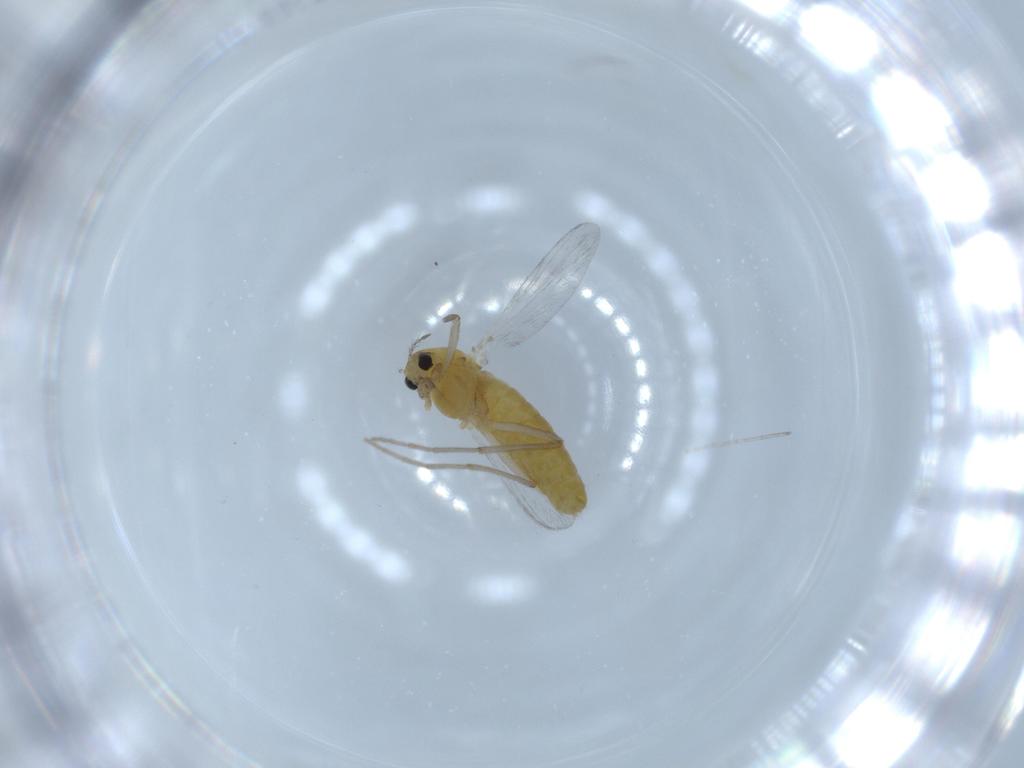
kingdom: Animalia
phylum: Arthropoda
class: Insecta
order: Diptera
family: Chironomidae
